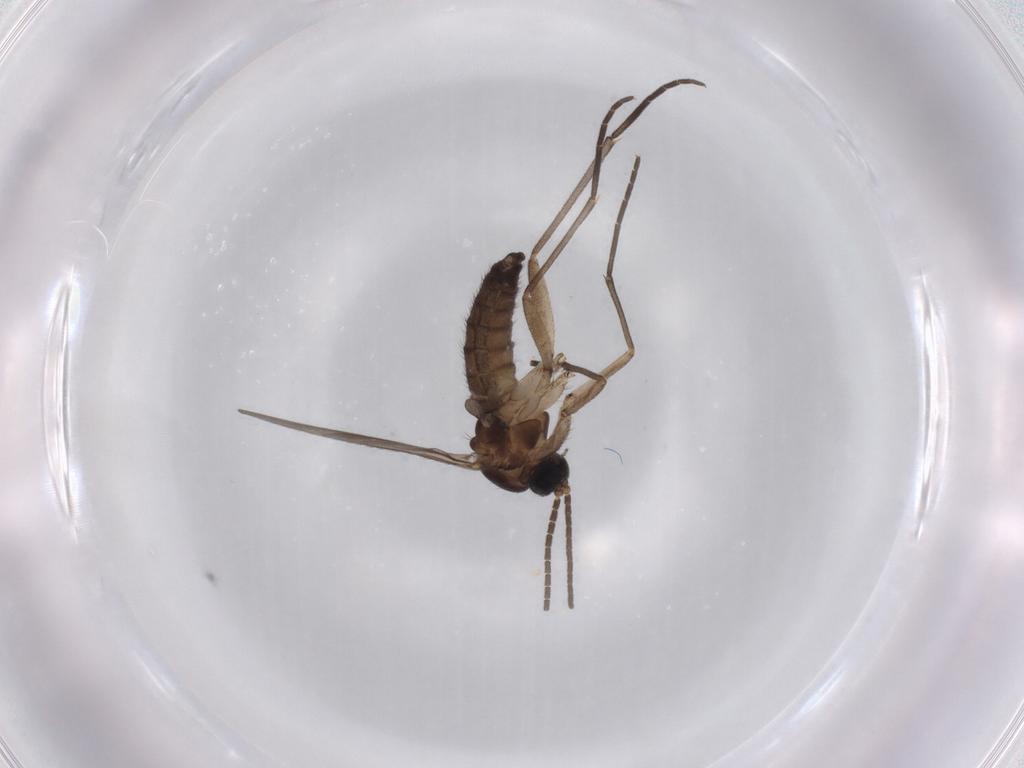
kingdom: Animalia
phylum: Arthropoda
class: Insecta
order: Diptera
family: Sciaridae
